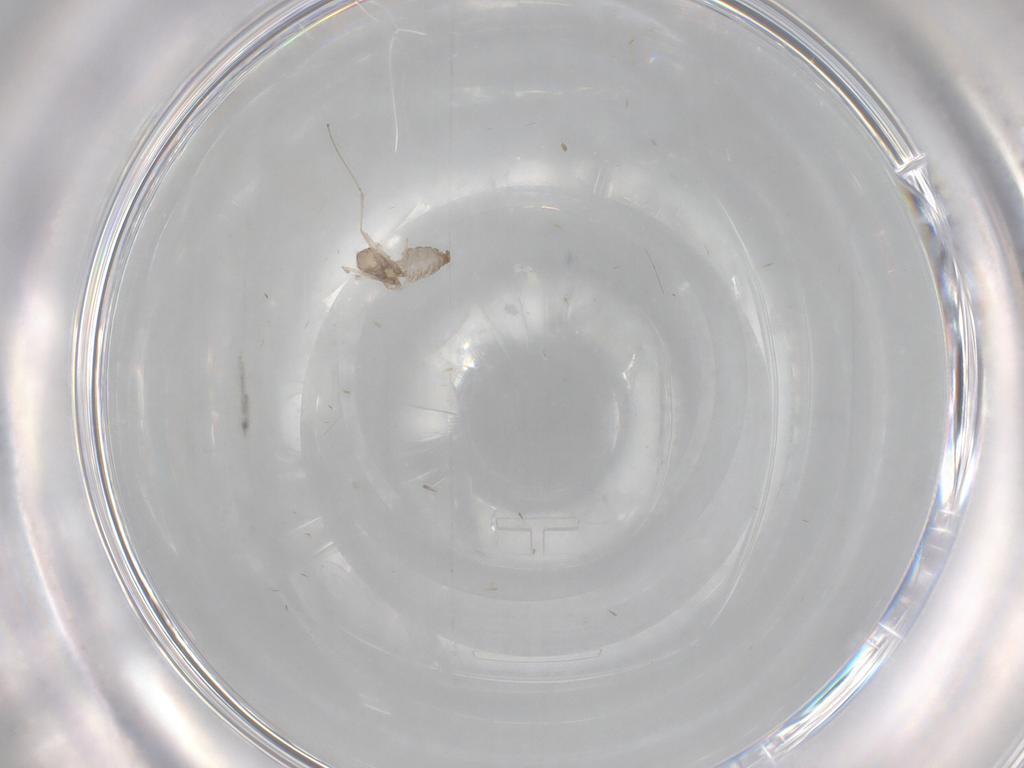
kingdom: Animalia
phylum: Arthropoda
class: Insecta
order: Diptera
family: Cecidomyiidae
